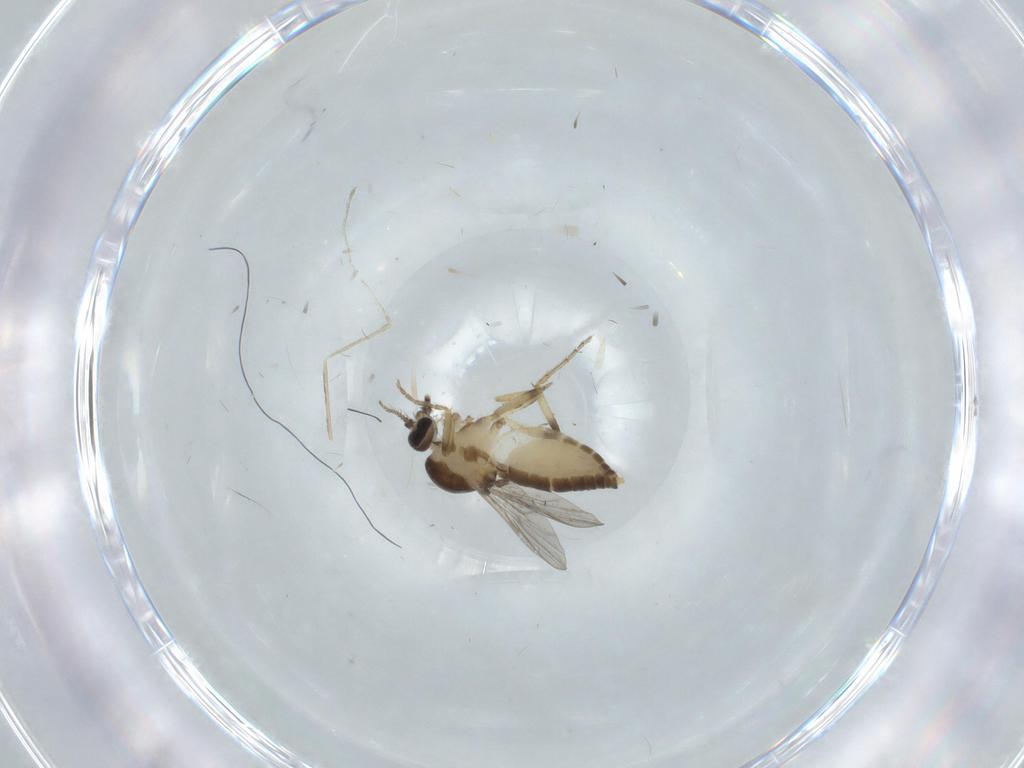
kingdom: Animalia
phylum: Arthropoda
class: Insecta
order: Diptera
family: Ceratopogonidae
